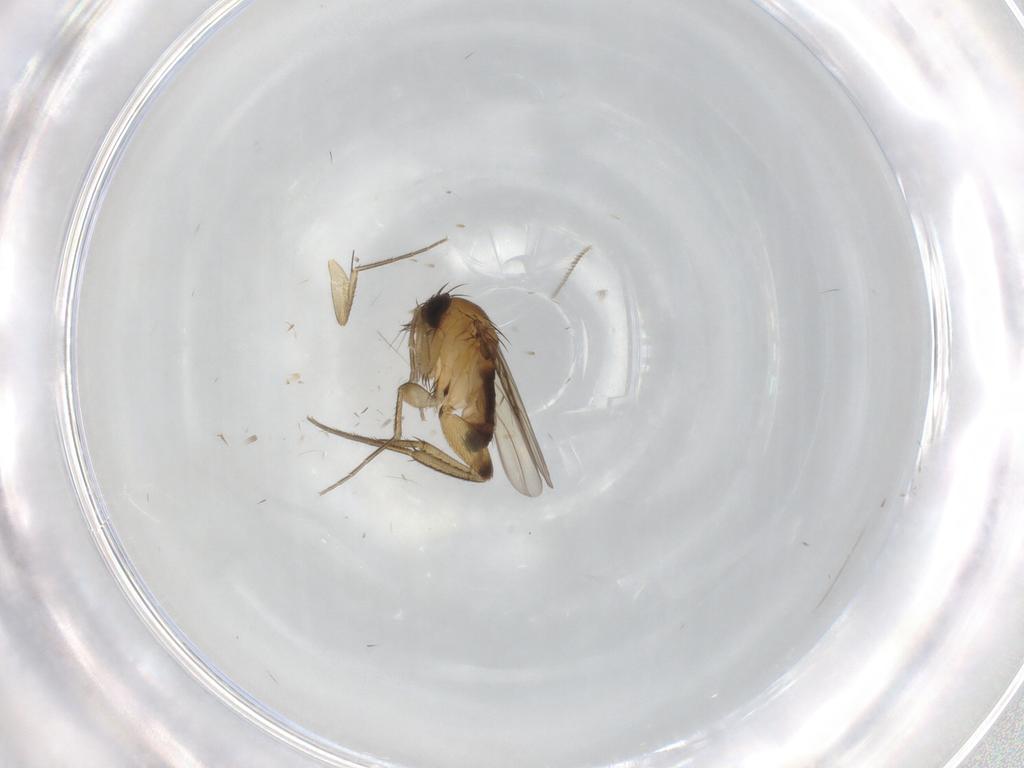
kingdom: Animalia
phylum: Arthropoda
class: Insecta
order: Diptera
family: Phoridae
